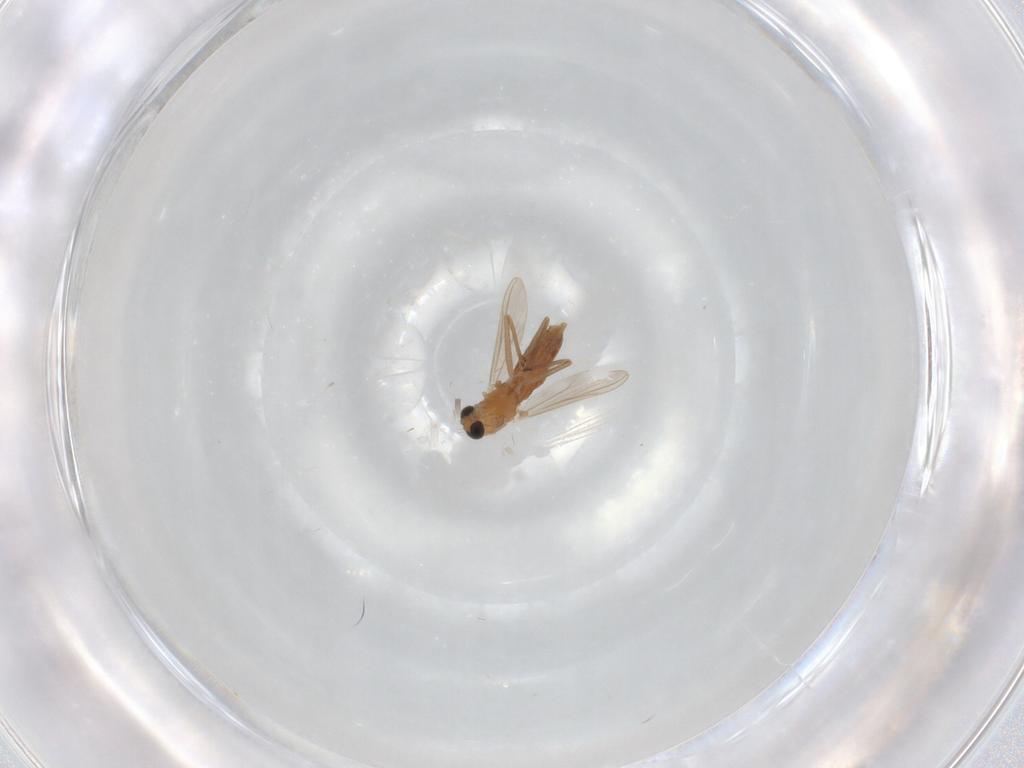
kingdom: Animalia
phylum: Arthropoda
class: Insecta
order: Diptera
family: Chironomidae
